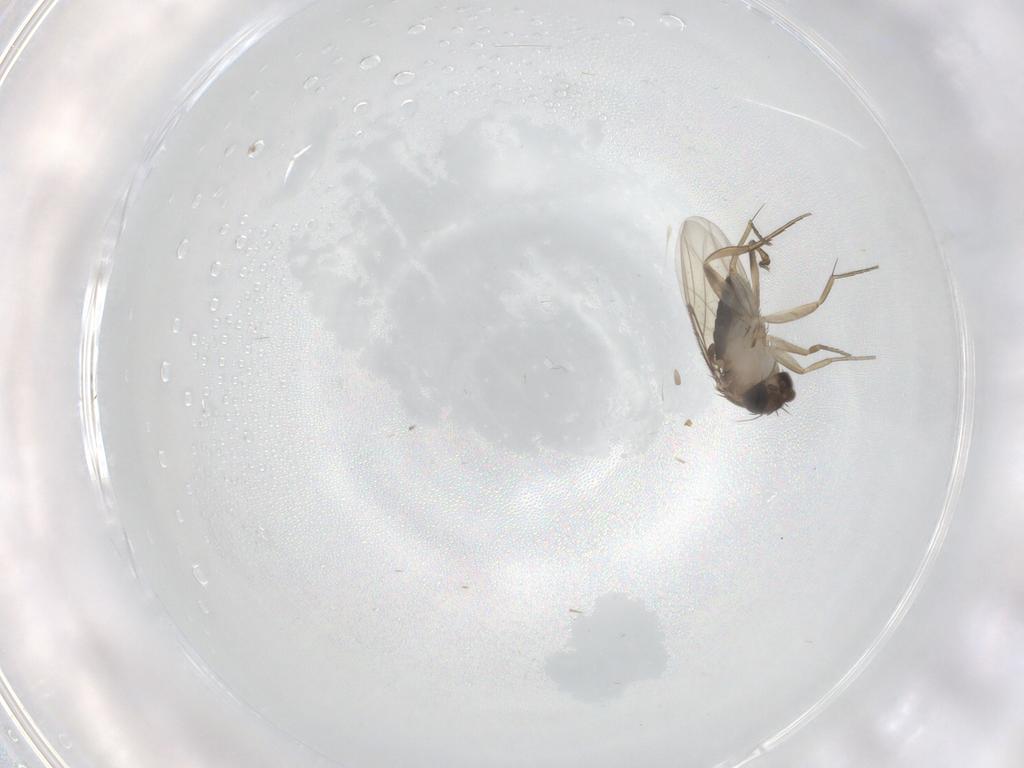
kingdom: Animalia
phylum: Arthropoda
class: Insecta
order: Diptera
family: Phoridae
